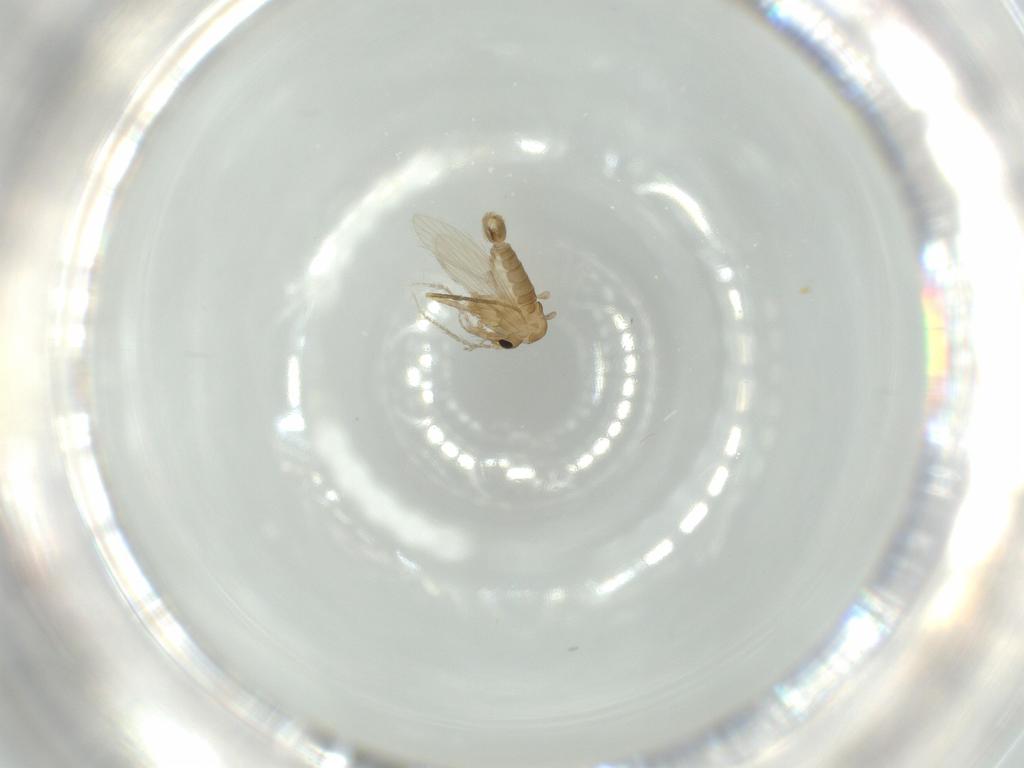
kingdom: Animalia
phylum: Arthropoda
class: Insecta
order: Diptera
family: Psychodidae
